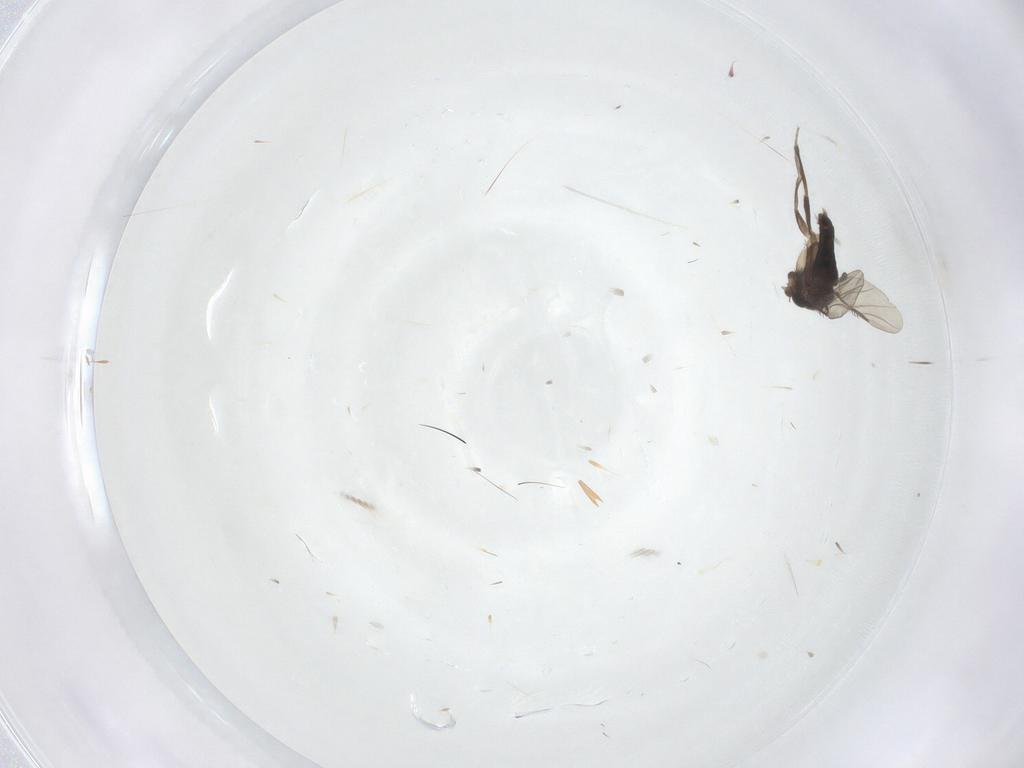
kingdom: Animalia
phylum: Arthropoda
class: Insecta
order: Diptera
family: Phoridae
